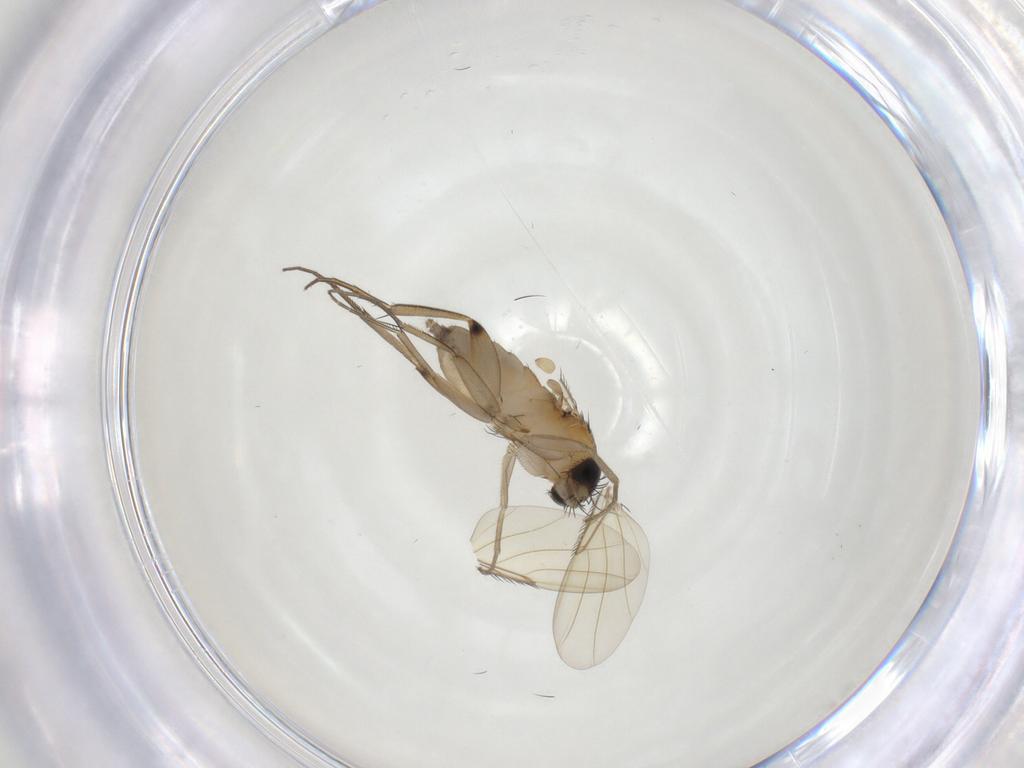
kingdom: Animalia
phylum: Arthropoda
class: Insecta
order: Diptera
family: Phoridae
